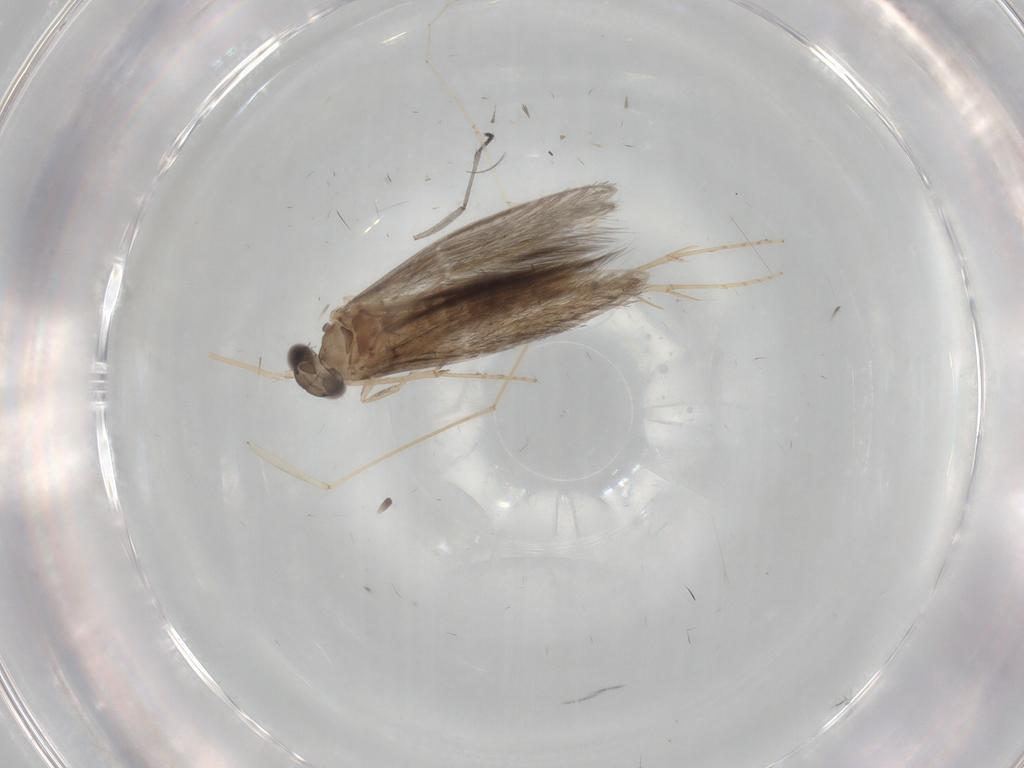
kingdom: Animalia
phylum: Arthropoda
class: Insecta
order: Trichoptera
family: Hydroptilidae
